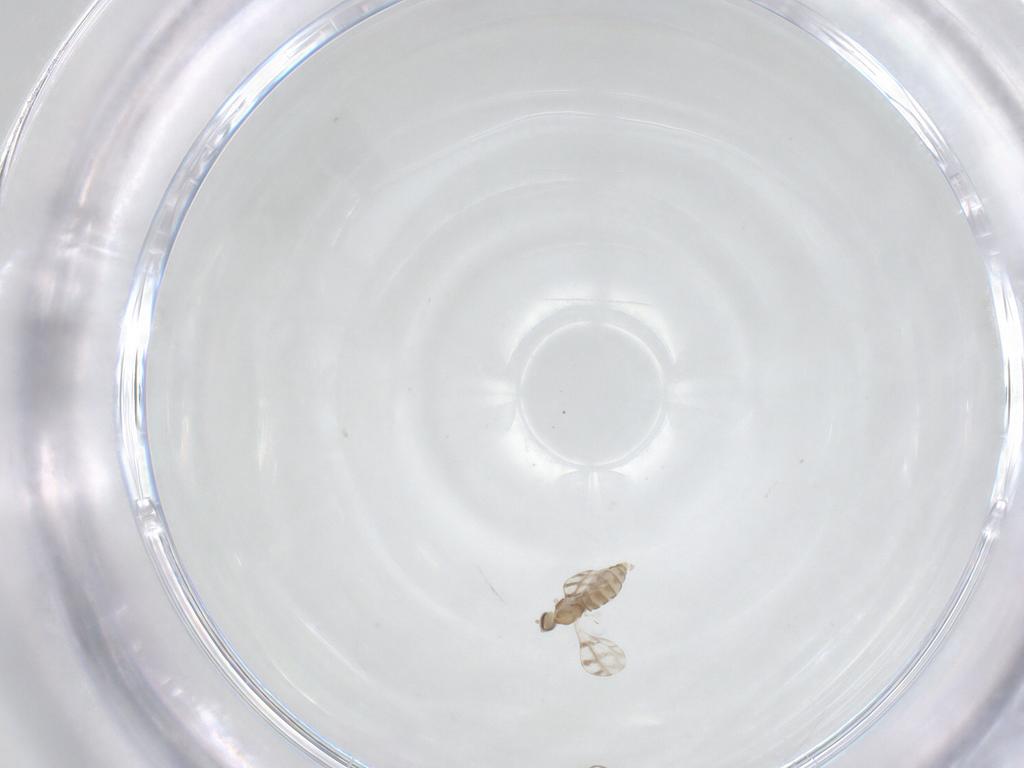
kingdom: Animalia
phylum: Arthropoda
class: Insecta
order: Diptera
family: Cecidomyiidae
